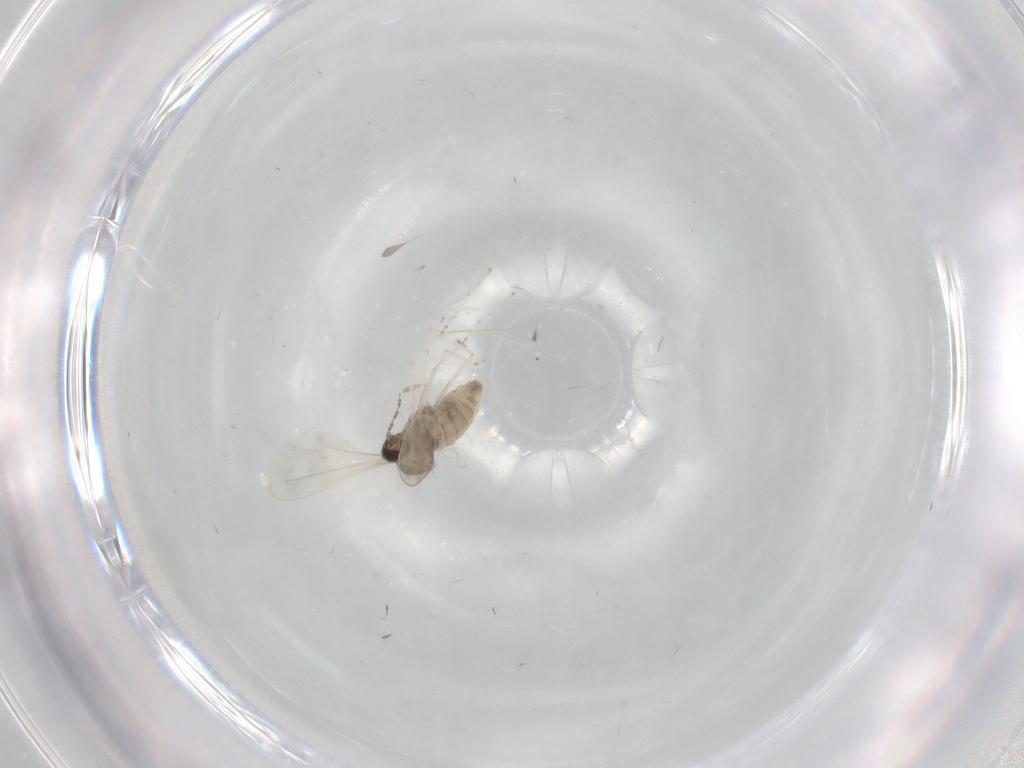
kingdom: Animalia
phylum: Arthropoda
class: Insecta
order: Diptera
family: Cecidomyiidae
